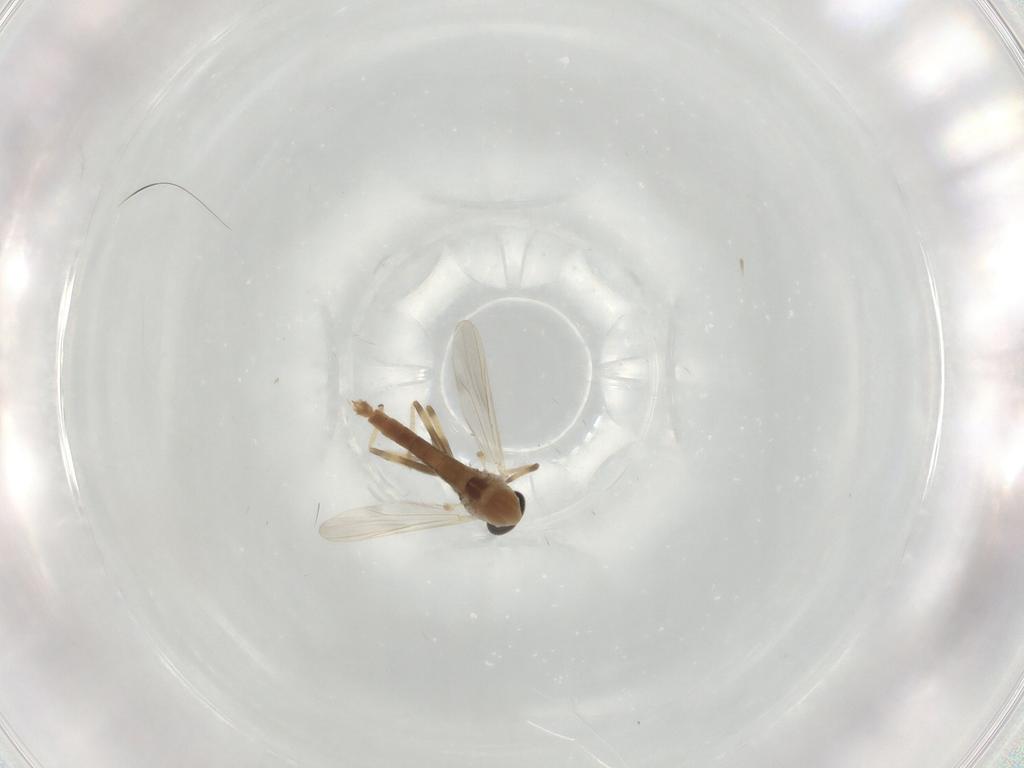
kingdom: Animalia
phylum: Arthropoda
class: Insecta
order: Diptera
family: Chironomidae
